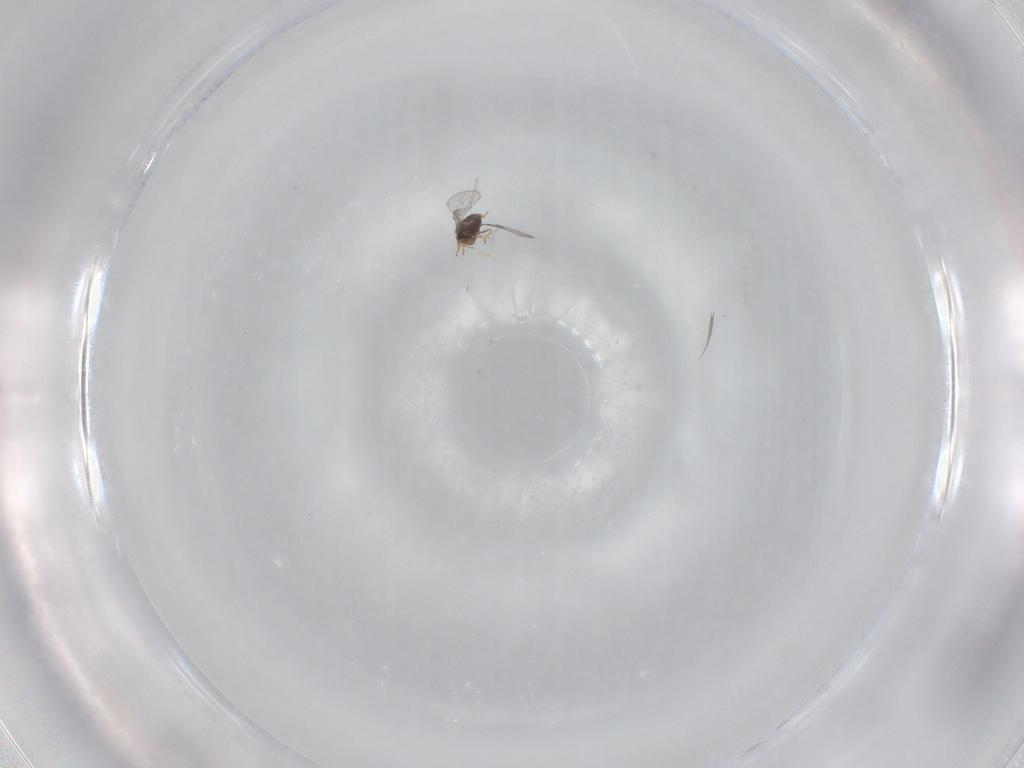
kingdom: Animalia
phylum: Arthropoda
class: Insecta
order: Hymenoptera
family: Trichogrammatidae
